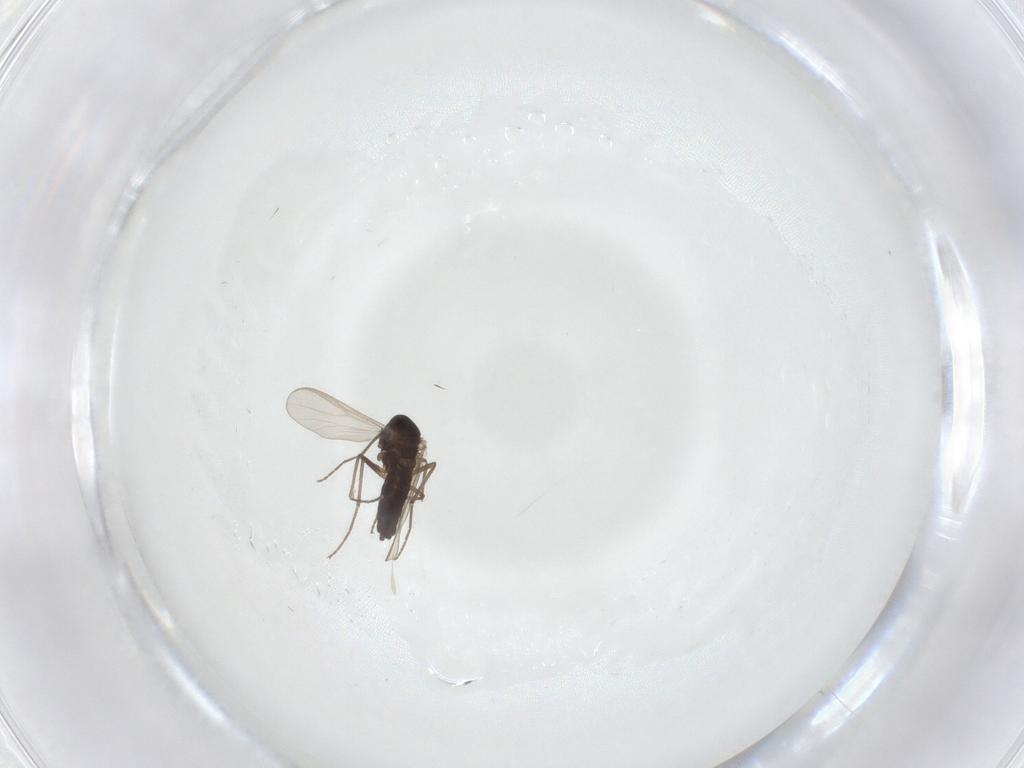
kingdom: Animalia
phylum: Arthropoda
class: Insecta
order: Diptera
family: Chironomidae
